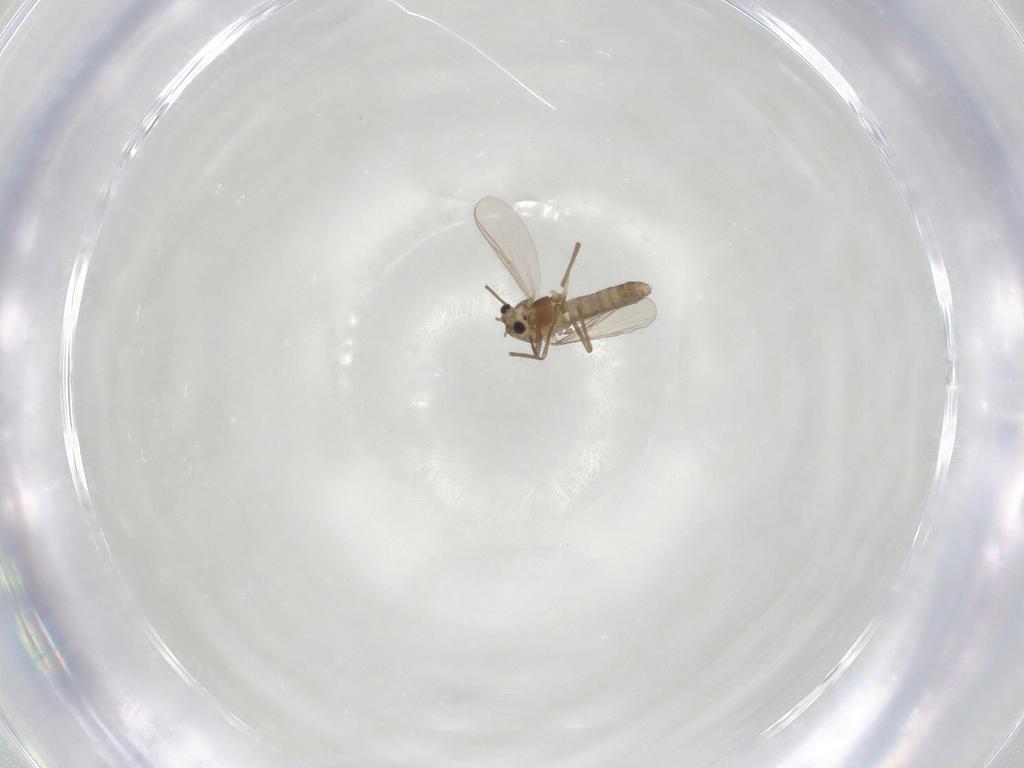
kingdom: Animalia
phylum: Arthropoda
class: Insecta
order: Diptera
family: Chironomidae
